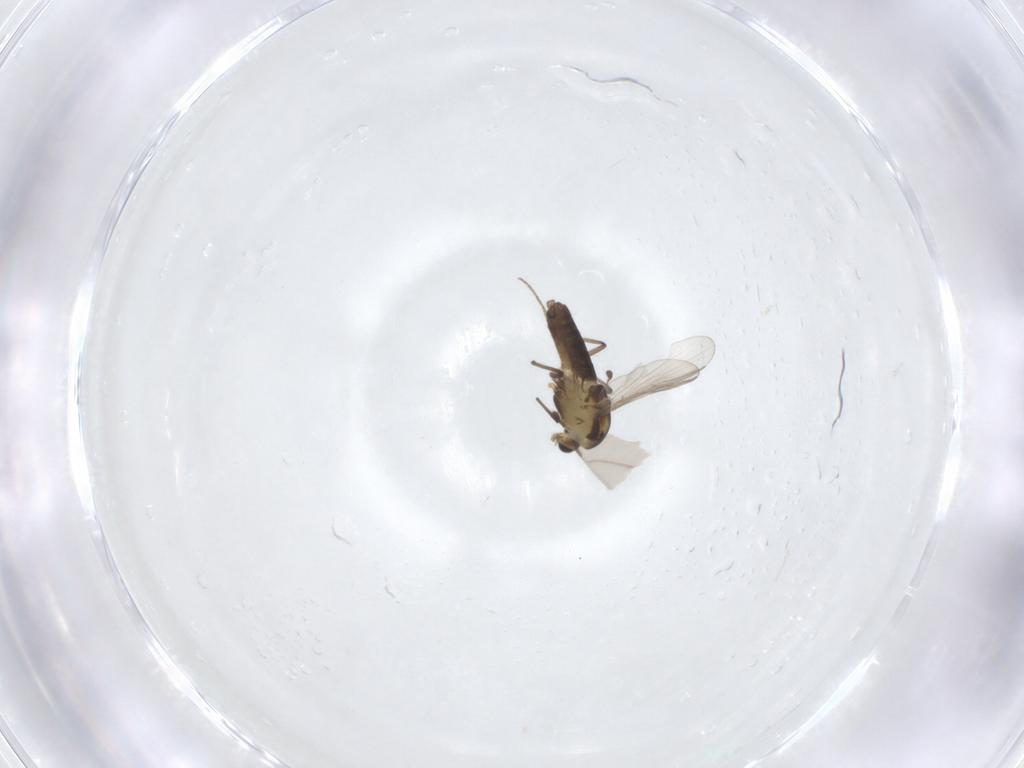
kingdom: Animalia
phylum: Arthropoda
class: Insecta
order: Diptera
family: Chironomidae
